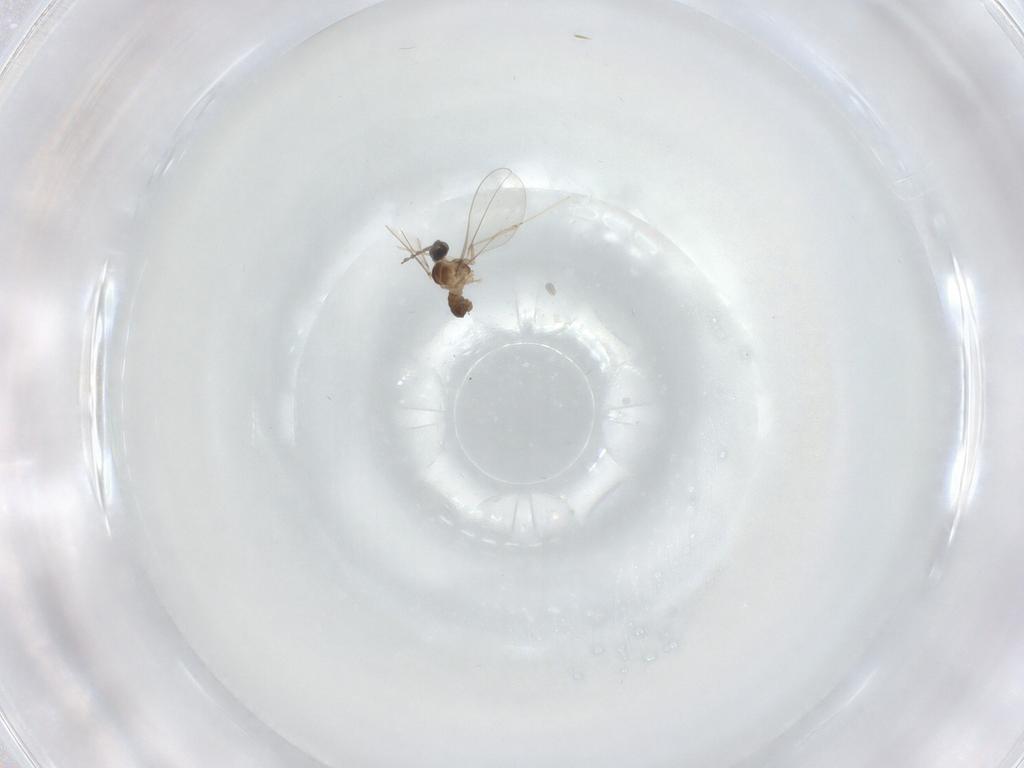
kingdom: Animalia
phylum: Arthropoda
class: Insecta
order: Diptera
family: Cecidomyiidae
